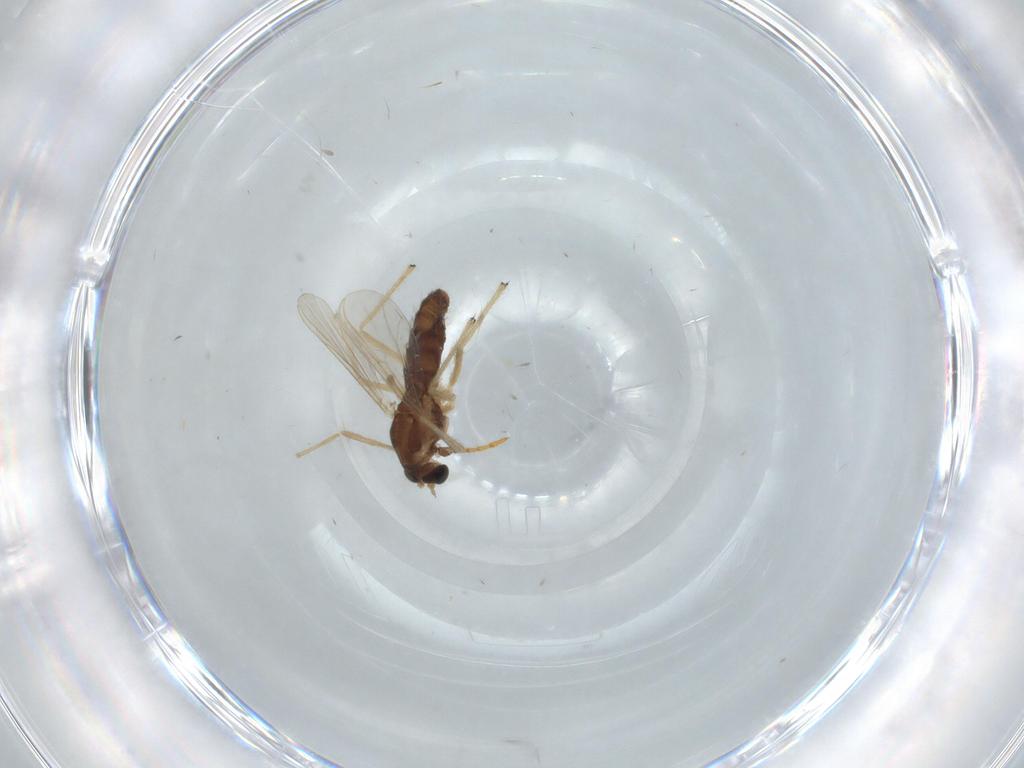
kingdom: Animalia
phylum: Arthropoda
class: Insecta
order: Diptera
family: Chironomidae
